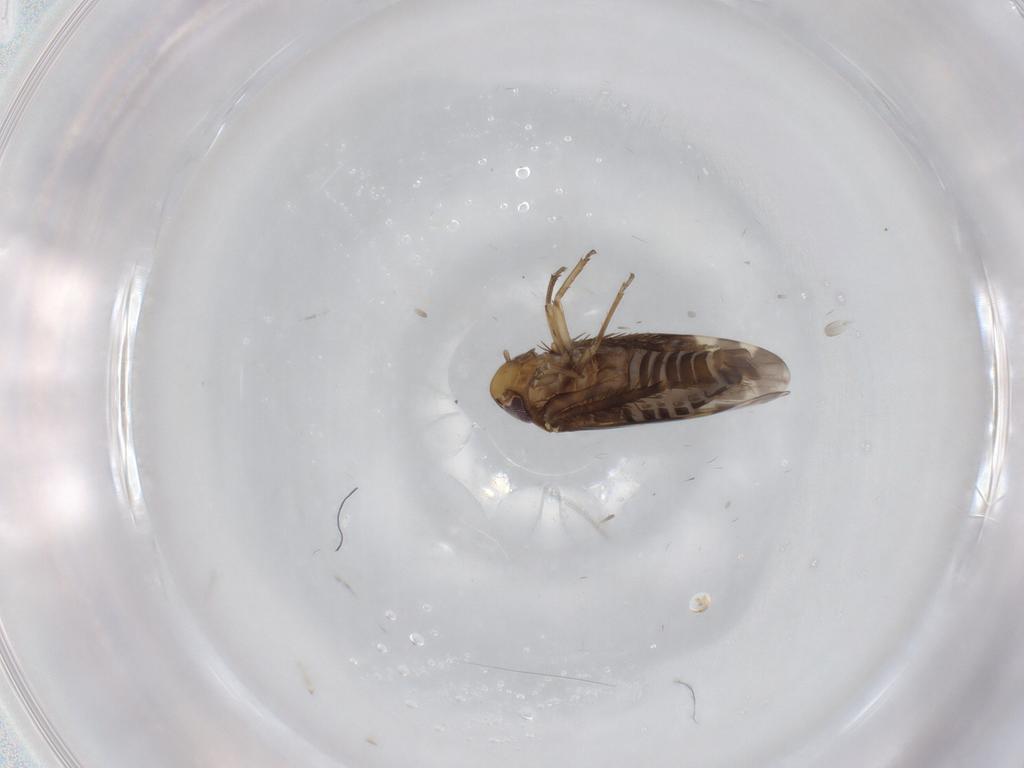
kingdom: Animalia
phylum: Arthropoda
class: Insecta
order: Hemiptera
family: Cicadellidae
